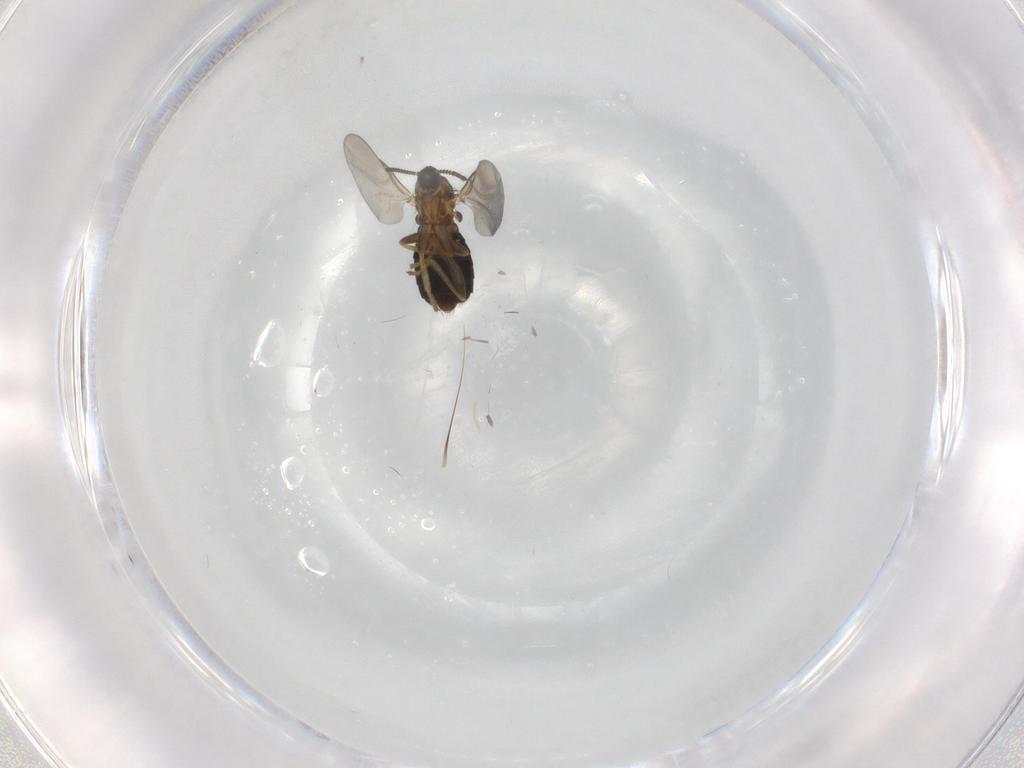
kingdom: Animalia
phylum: Arthropoda
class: Insecta
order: Diptera
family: Scatopsidae
